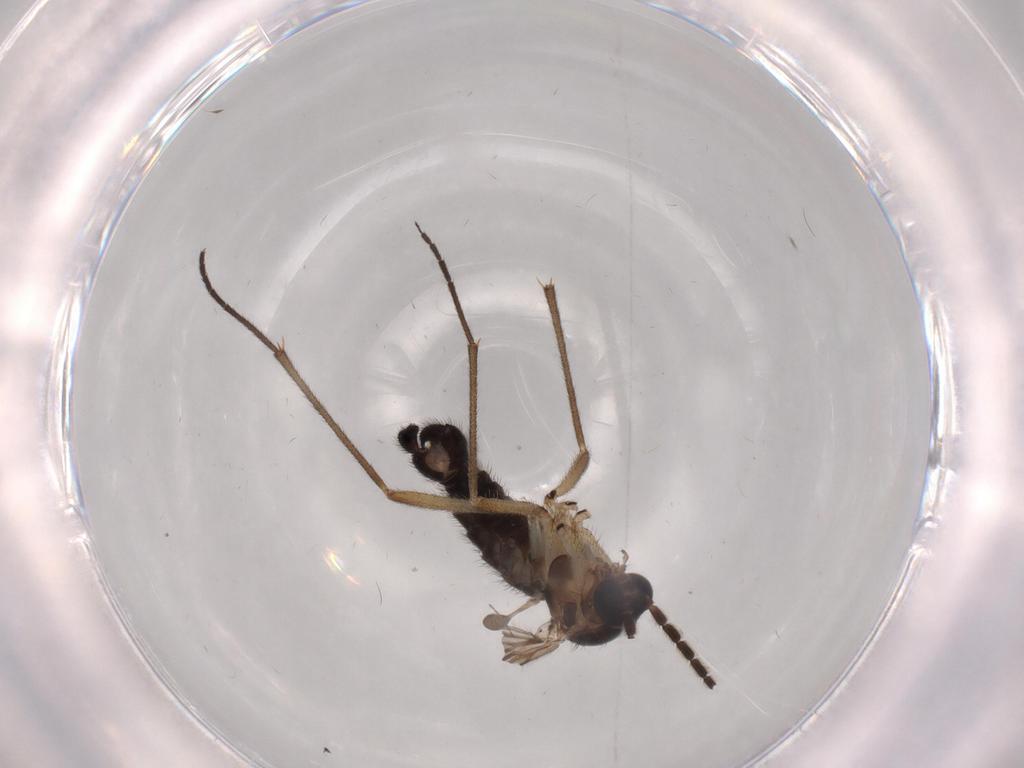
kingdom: Animalia
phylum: Arthropoda
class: Insecta
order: Diptera
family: Sciaridae
